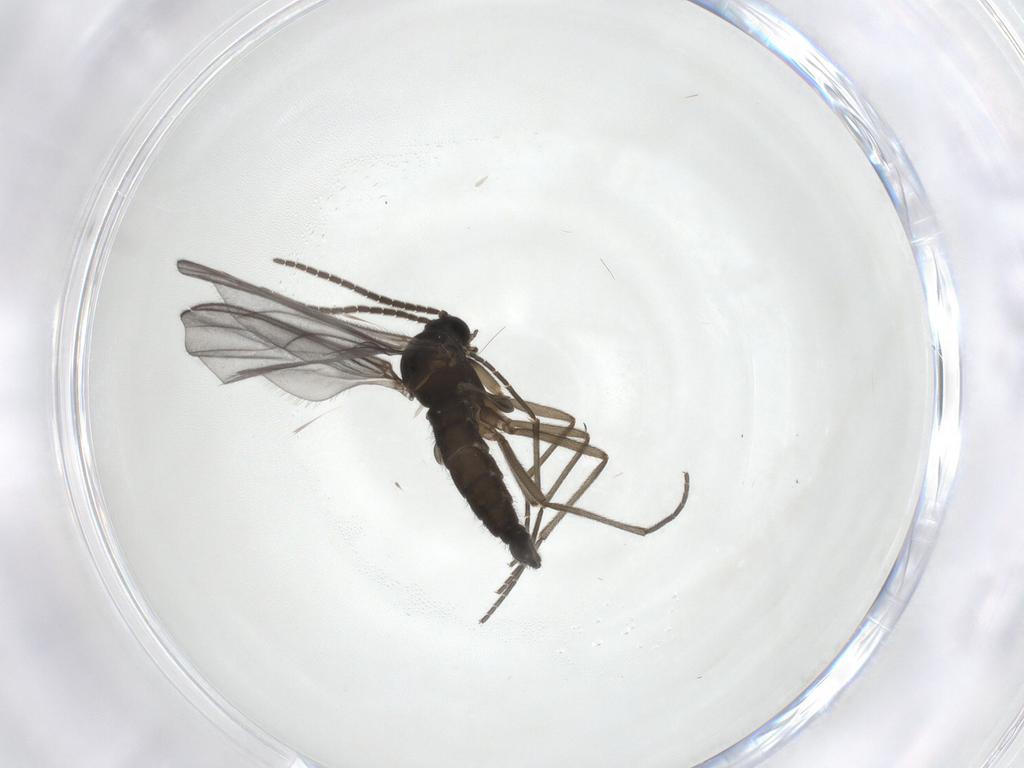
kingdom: Animalia
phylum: Arthropoda
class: Insecta
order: Diptera
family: Sciaridae
